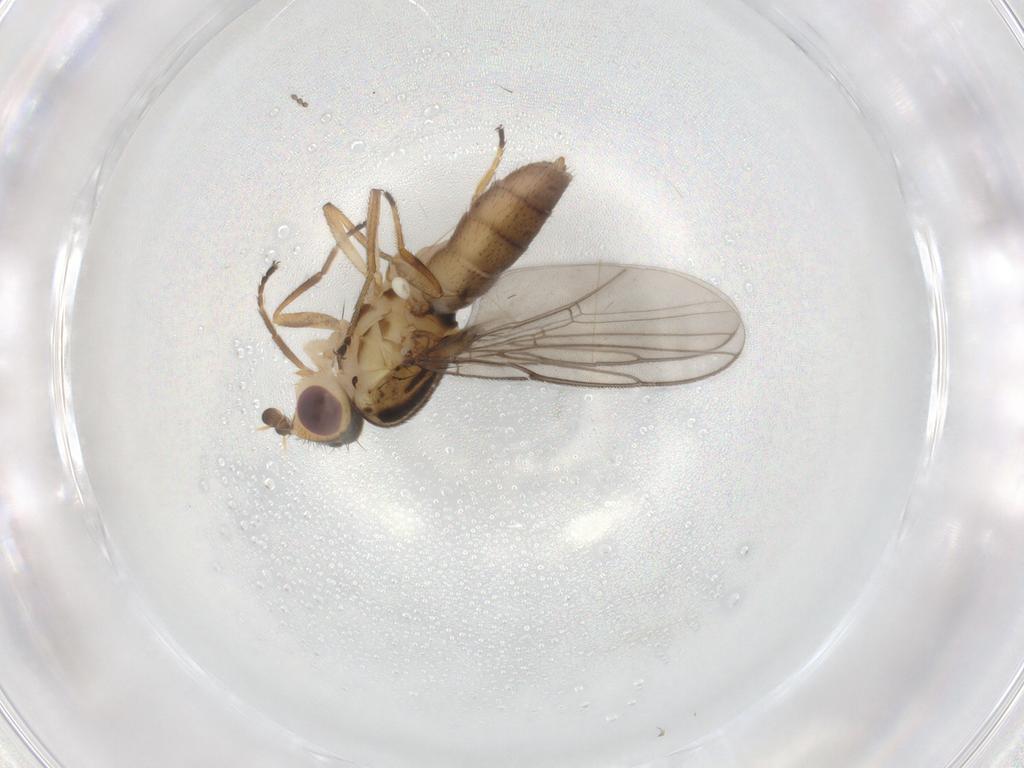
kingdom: Animalia
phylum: Arthropoda
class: Insecta
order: Diptera
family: Chloropidae
